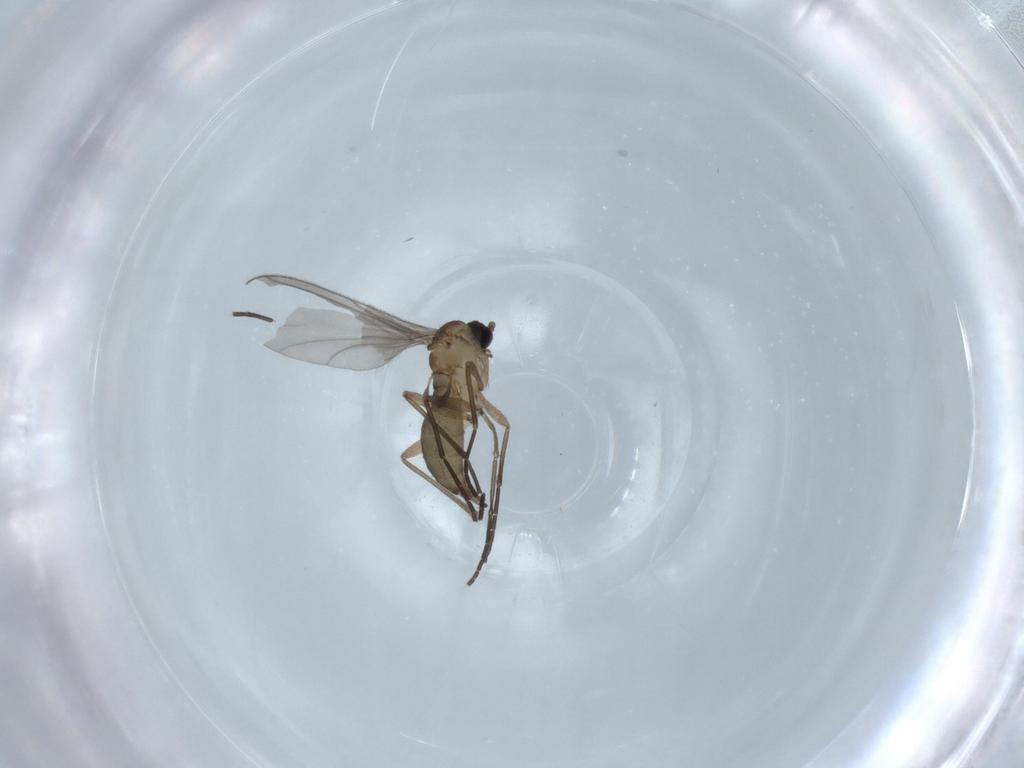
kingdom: Animalia
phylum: Arthropoda
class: Insecta
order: Diptera
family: Sciaridae
